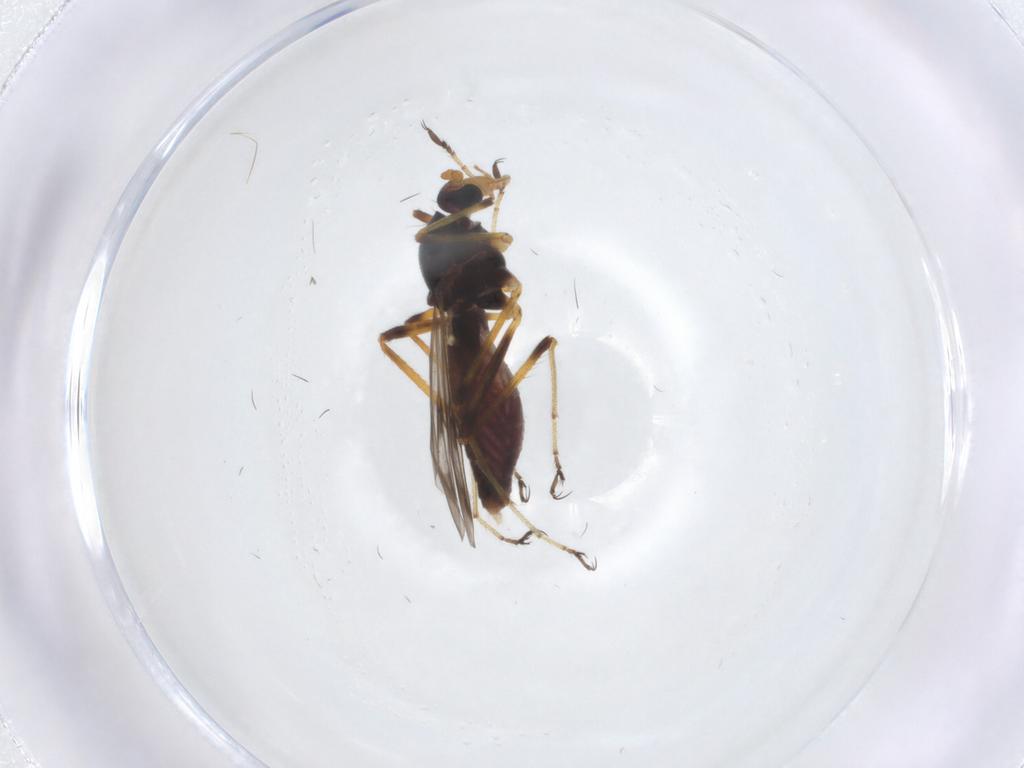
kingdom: Animalia
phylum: Arthropoda
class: Insecta
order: Diptera
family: Ceratopogonidae
